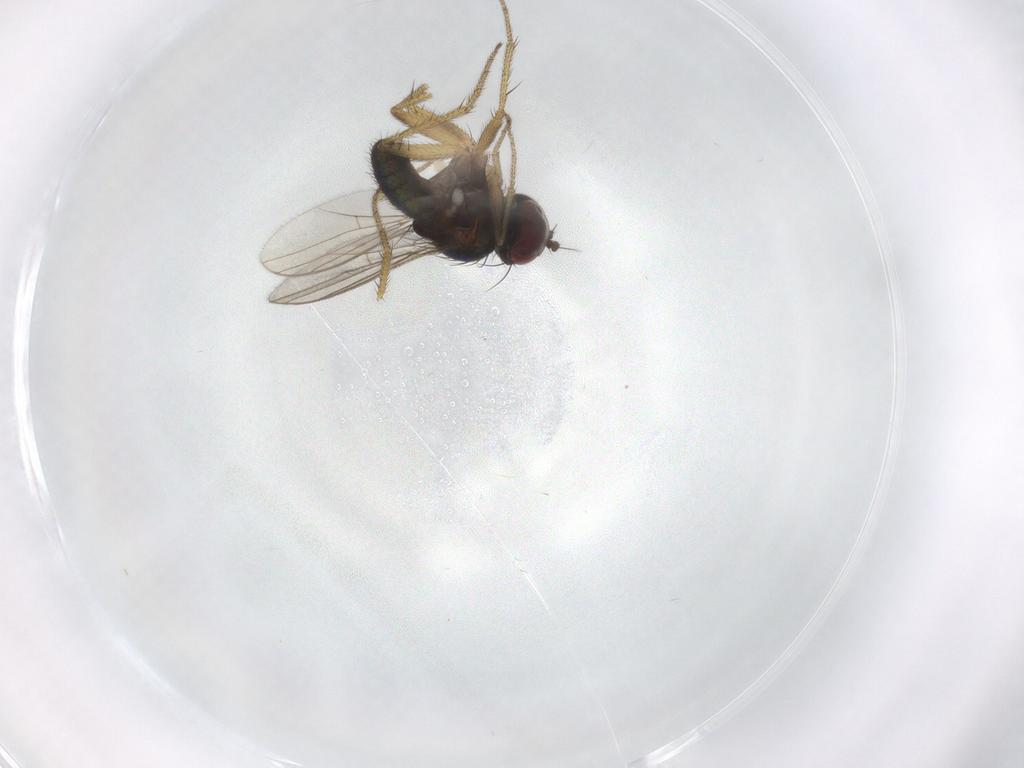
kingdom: Animalia
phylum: Arthropoda
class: Insecta
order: Diptera
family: Dolichopodidae
